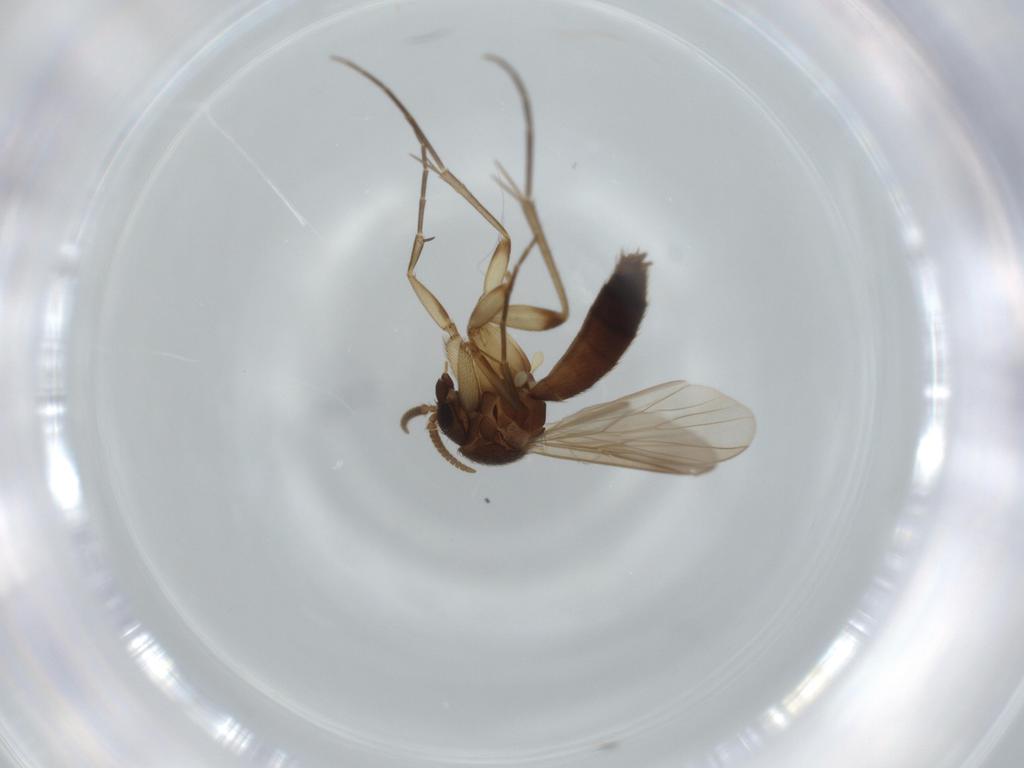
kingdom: Animalia
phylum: Arthropoda
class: Insecta
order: Diptera
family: Mycetophilidae
